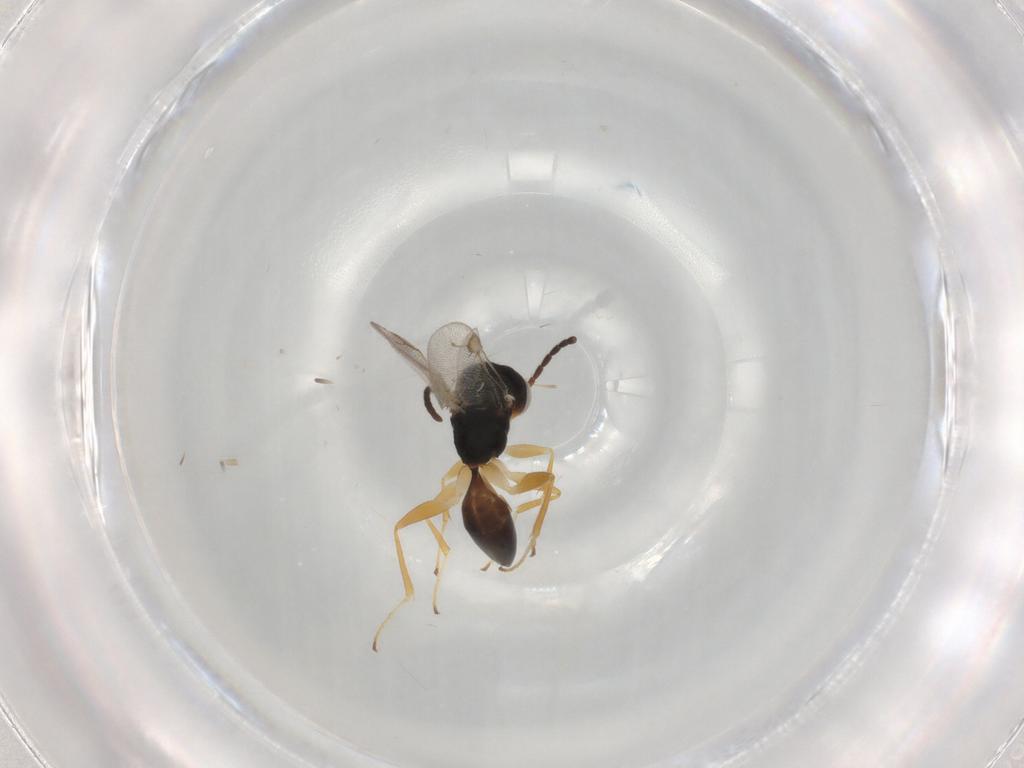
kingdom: Animalia
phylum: Arthropoda
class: Insecta
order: Hymenoptera
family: Dryinidae
